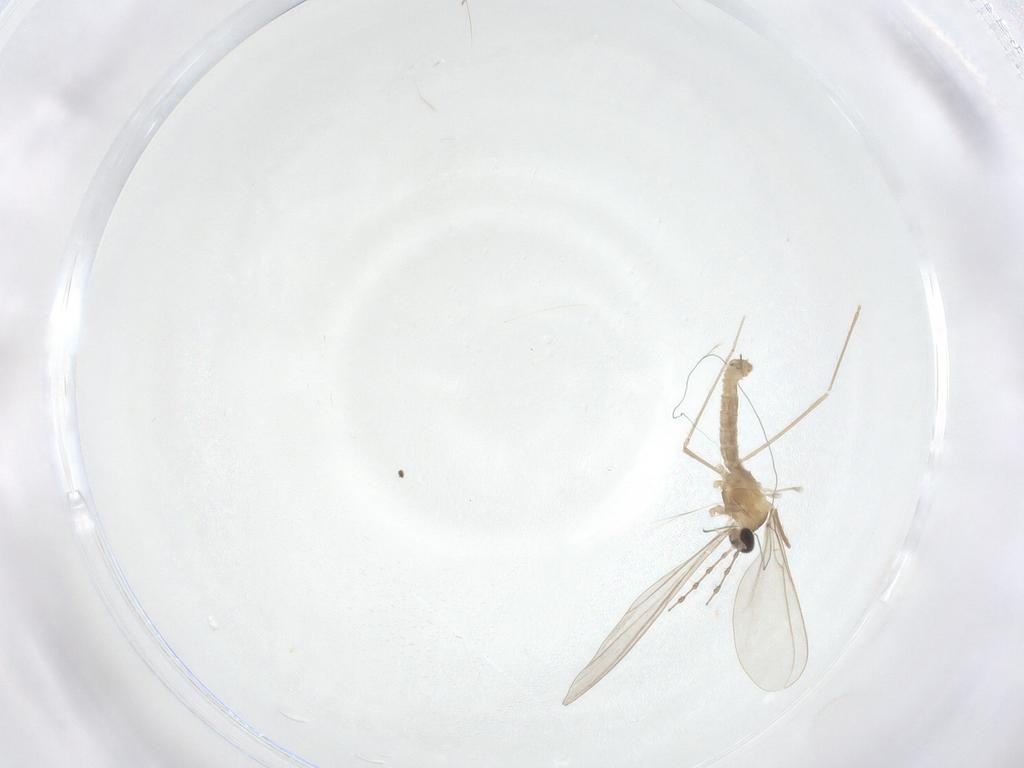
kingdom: Animalia
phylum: Arthropoda
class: Insecta
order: Diptera
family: Cecidomyiidae
